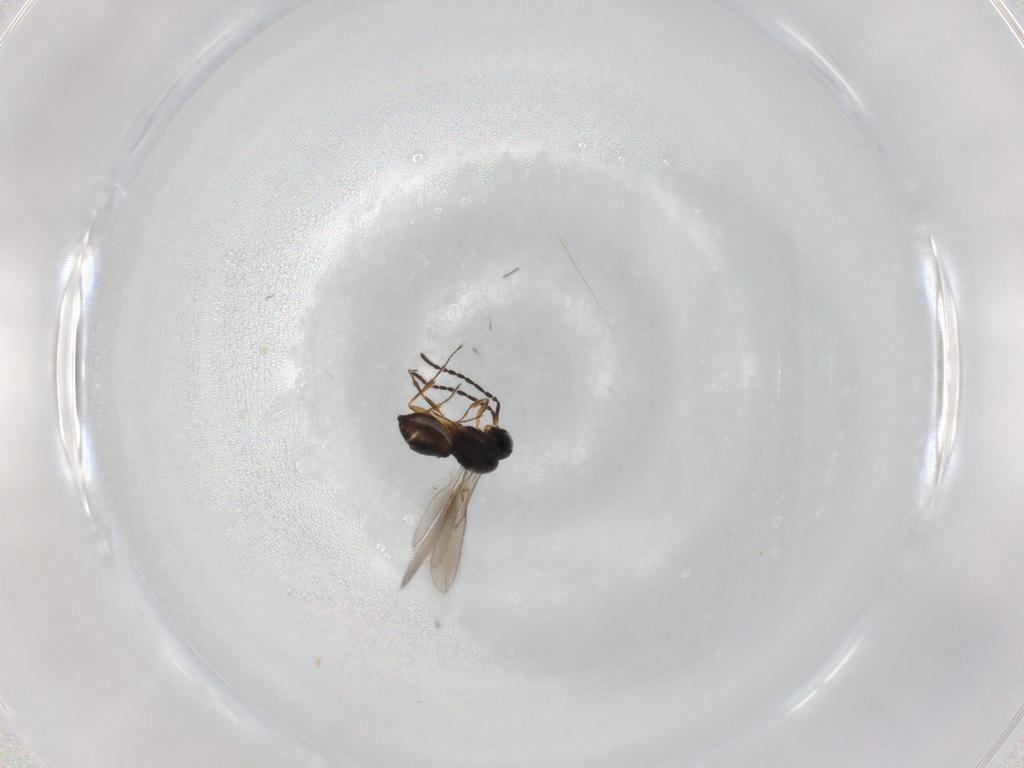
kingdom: Animalia
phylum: Arthropoda
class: Insecta
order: Hymenoptera
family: Scelionidae
